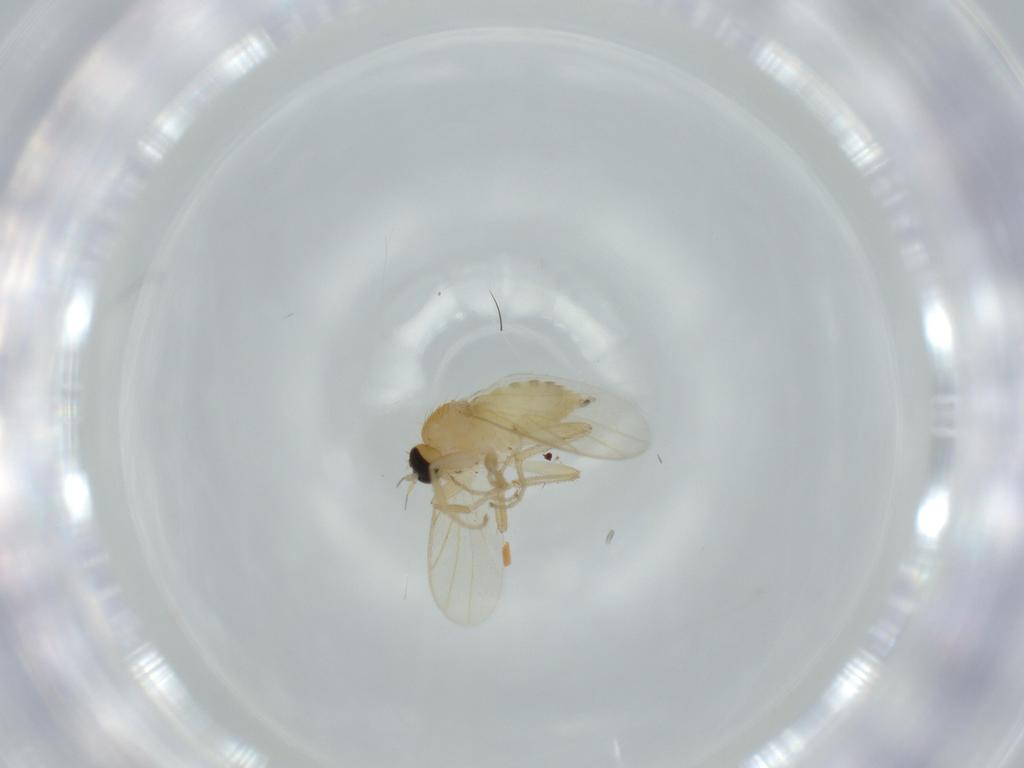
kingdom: Animalia
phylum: Arthropoda
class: Insecta
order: Diptera
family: Hybotidae
